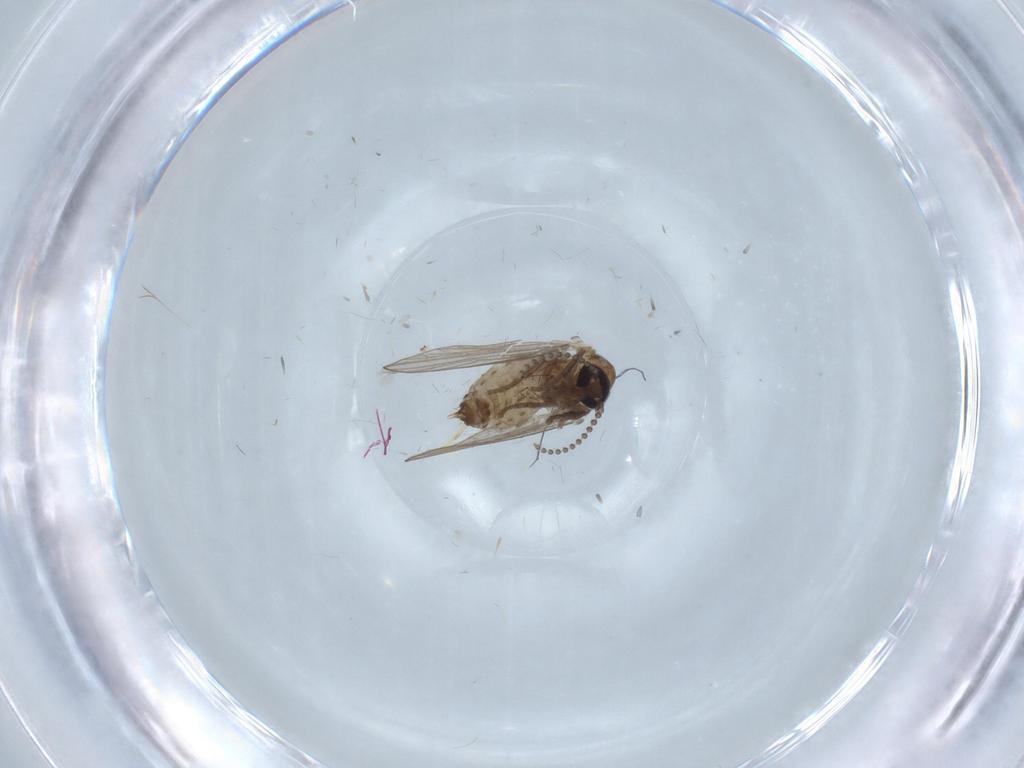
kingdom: Animalia
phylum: Arthropoda
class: Insecta
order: Diptera
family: Psychodidae
